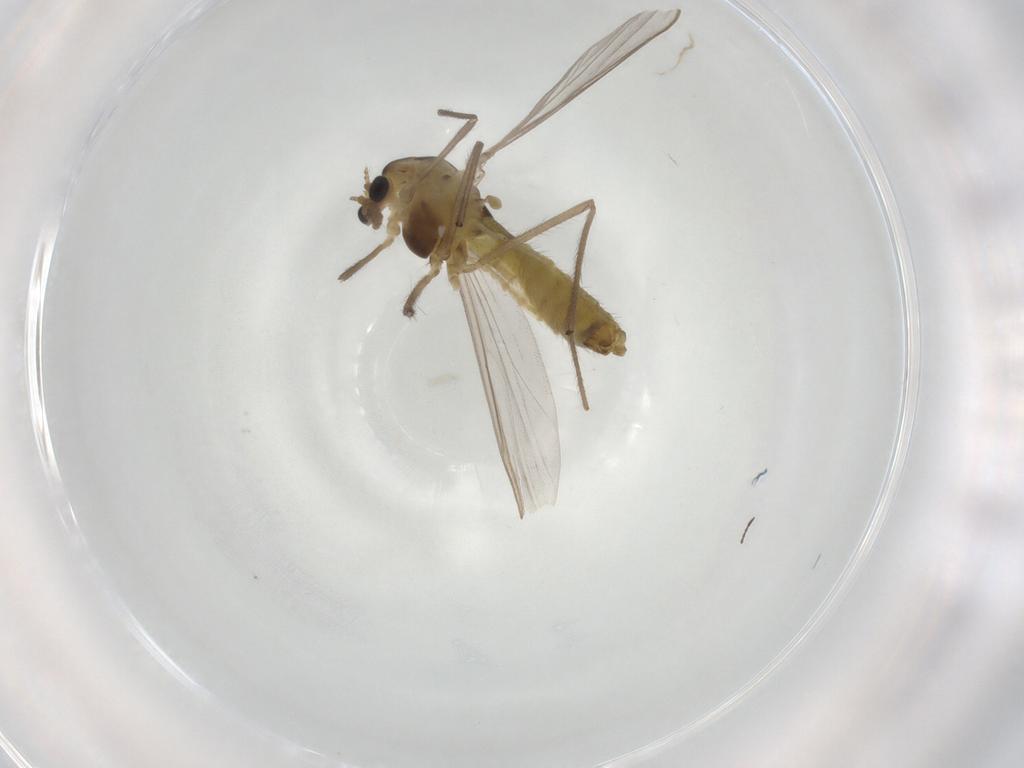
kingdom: Animalia
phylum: Arthropoda
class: Insecta
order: Diptera
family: Chironomidae
